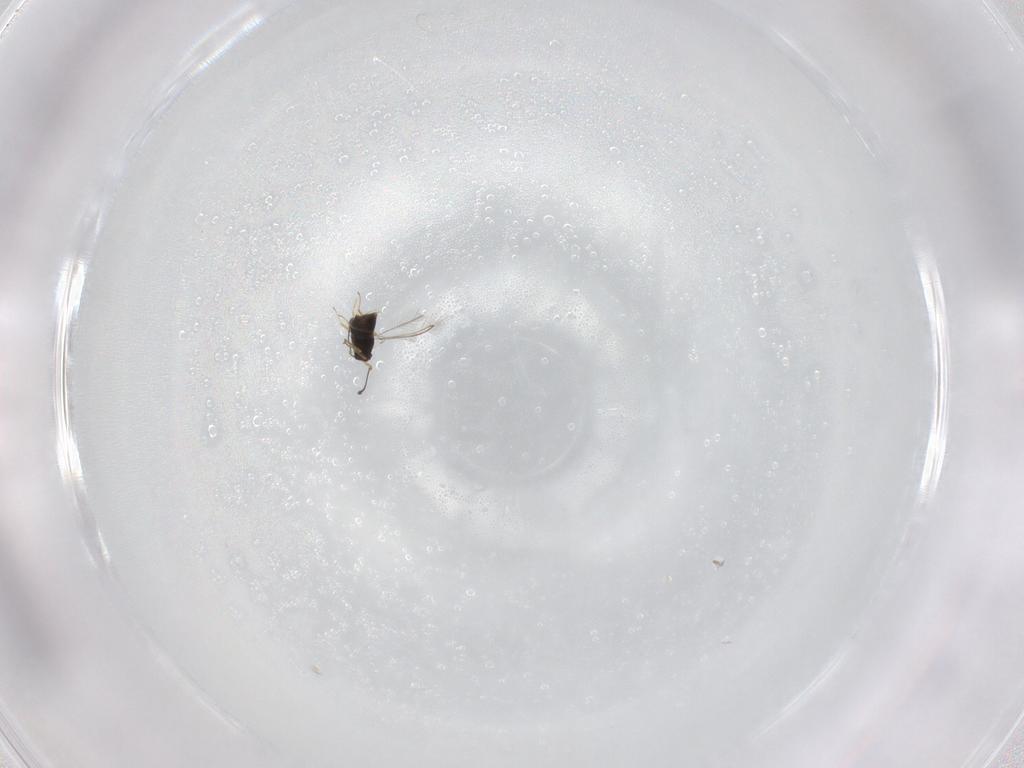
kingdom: Animalia
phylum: Arthropoda
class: Insecta
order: Hymenoptera
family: Argidae
